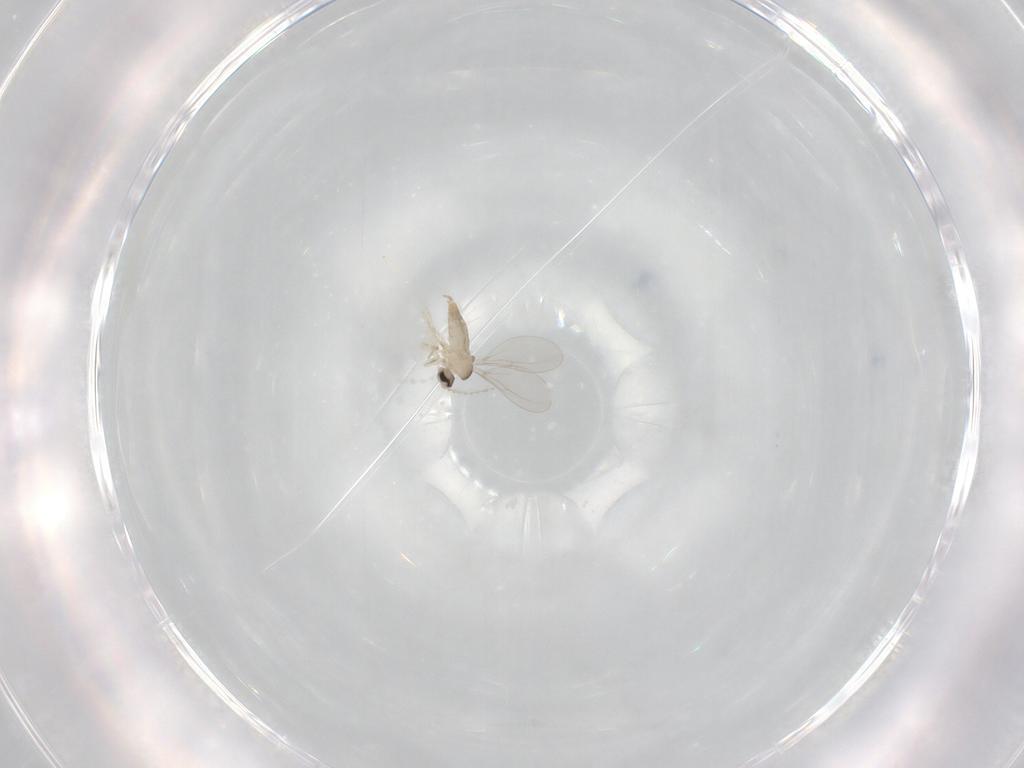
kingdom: Animalia
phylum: Arthropoda
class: Insecta
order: Diptera
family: Cecidomyiidae
